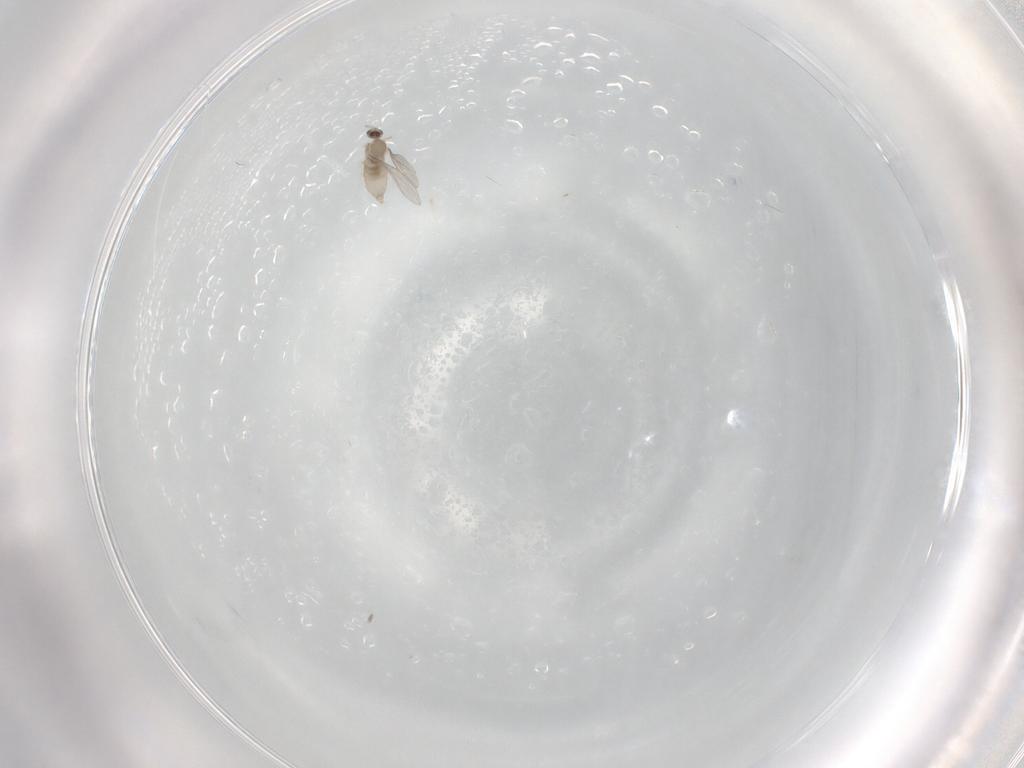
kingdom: Animalia
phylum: Arthropoda
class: Insecta
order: Diptera
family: Cecidomyiidae
